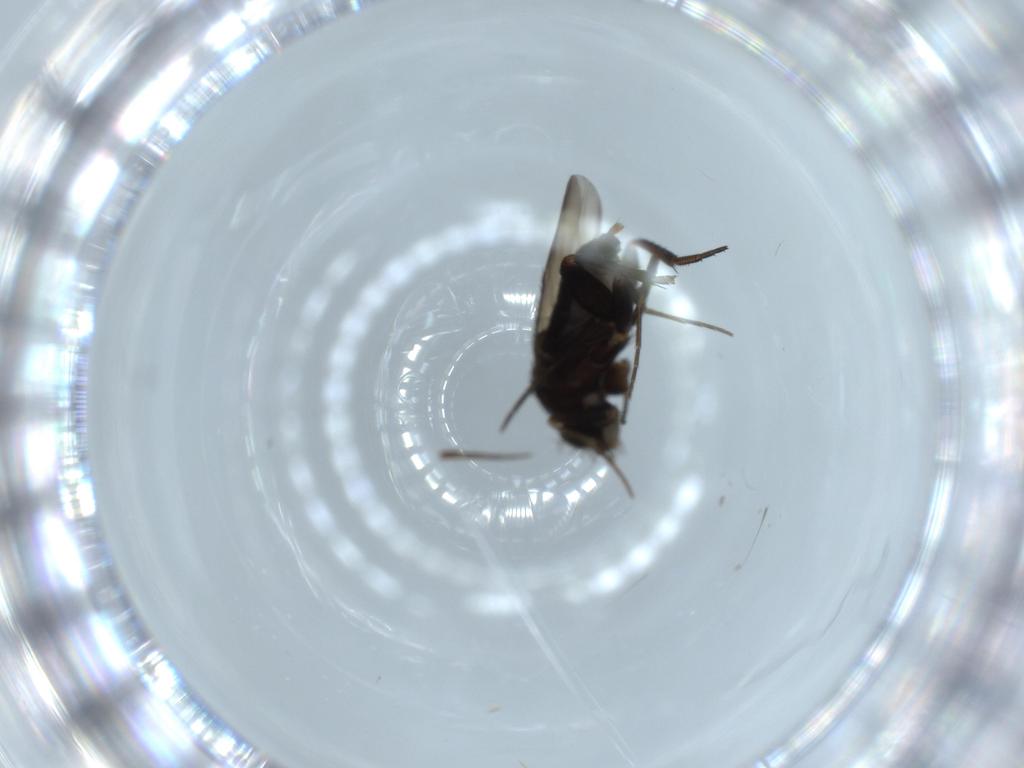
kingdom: Animalia
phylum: Arthropoda
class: Insecta
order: Diptera
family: Phoridae
